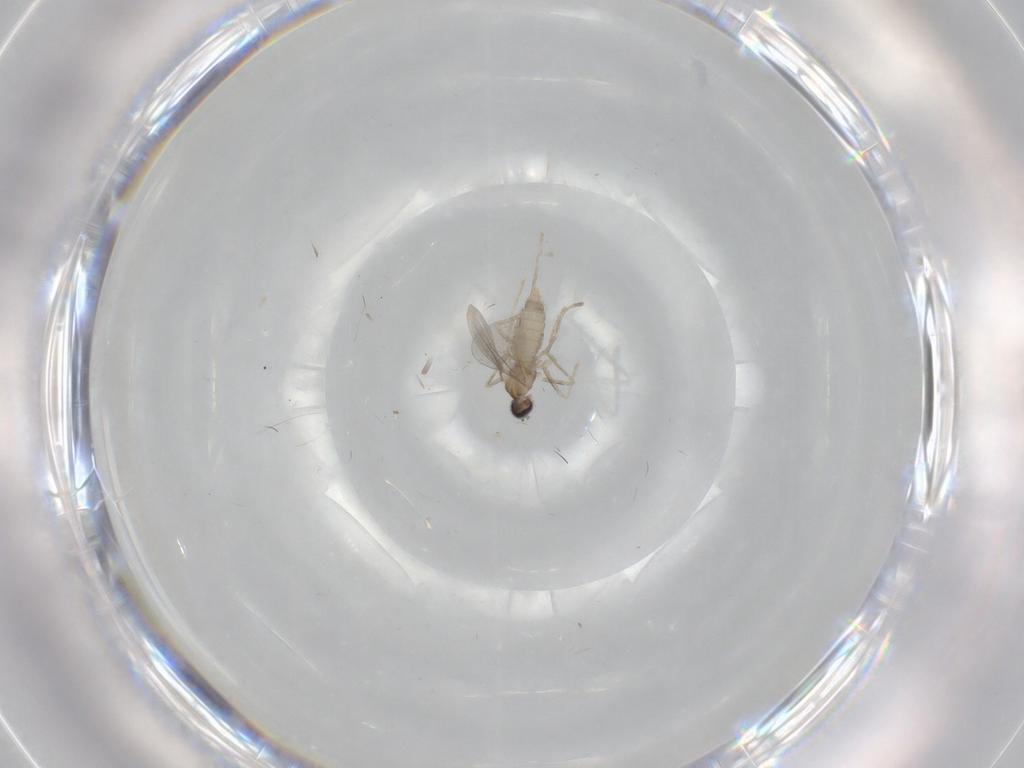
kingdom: Animalia
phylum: Arthropoda
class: Insecta
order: Diptera
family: Cecidomyiidae
